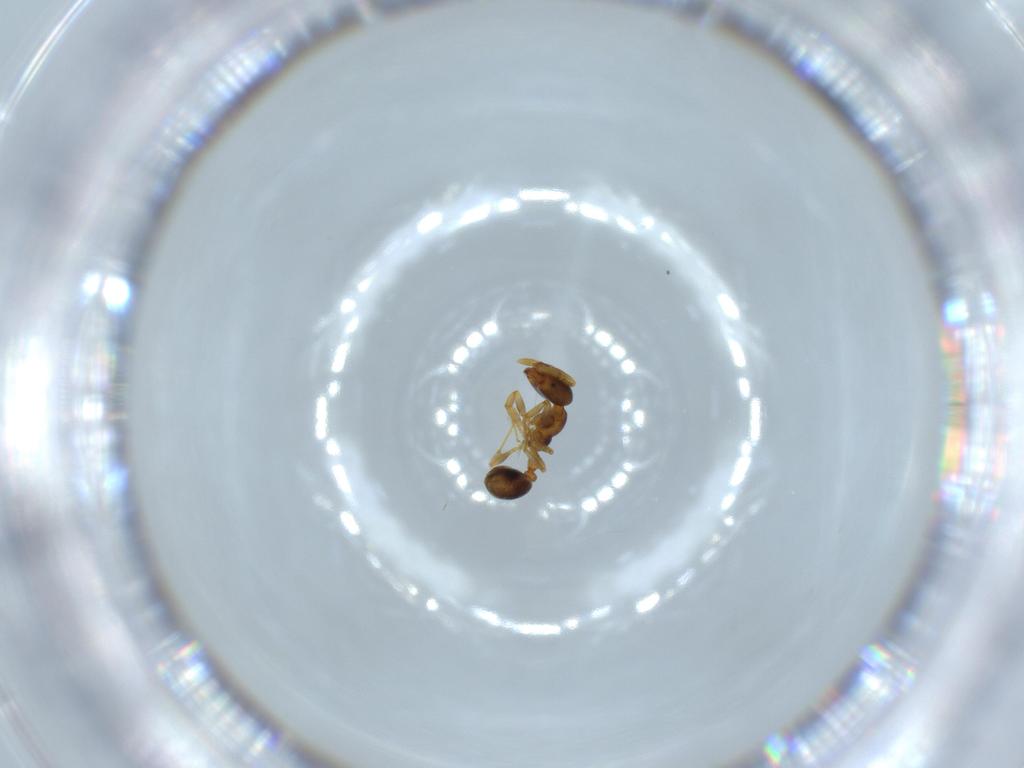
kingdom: Animalia
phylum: Arthropoda
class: Insecta
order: Hymenoptera
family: Formicidae
